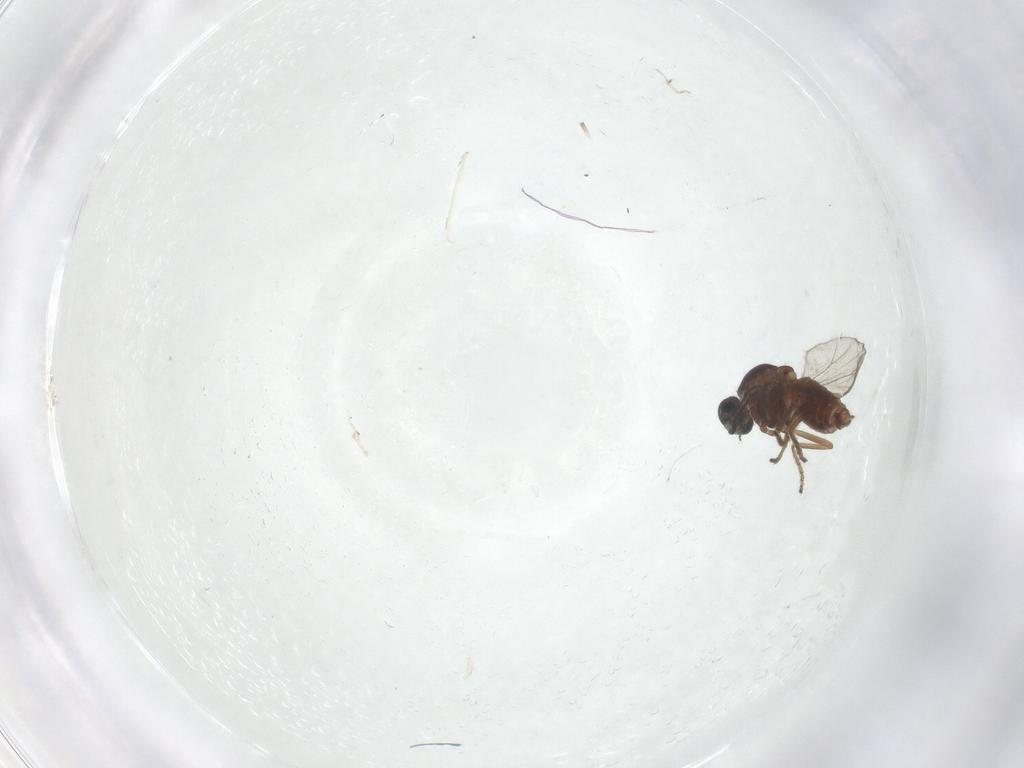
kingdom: Animalia
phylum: Arthropoda
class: Insecta
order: Diptera
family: Ceratopogonidae
